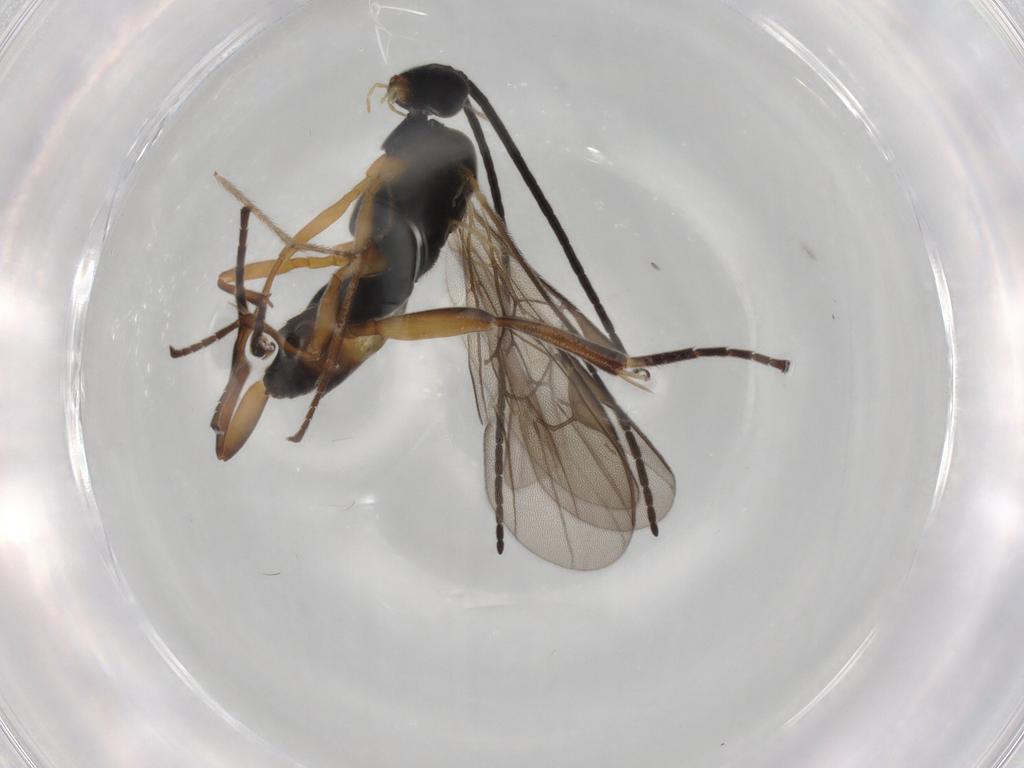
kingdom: Animalia
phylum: Arthropoda
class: Insecta
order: Hymenoptera
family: Braconidae
